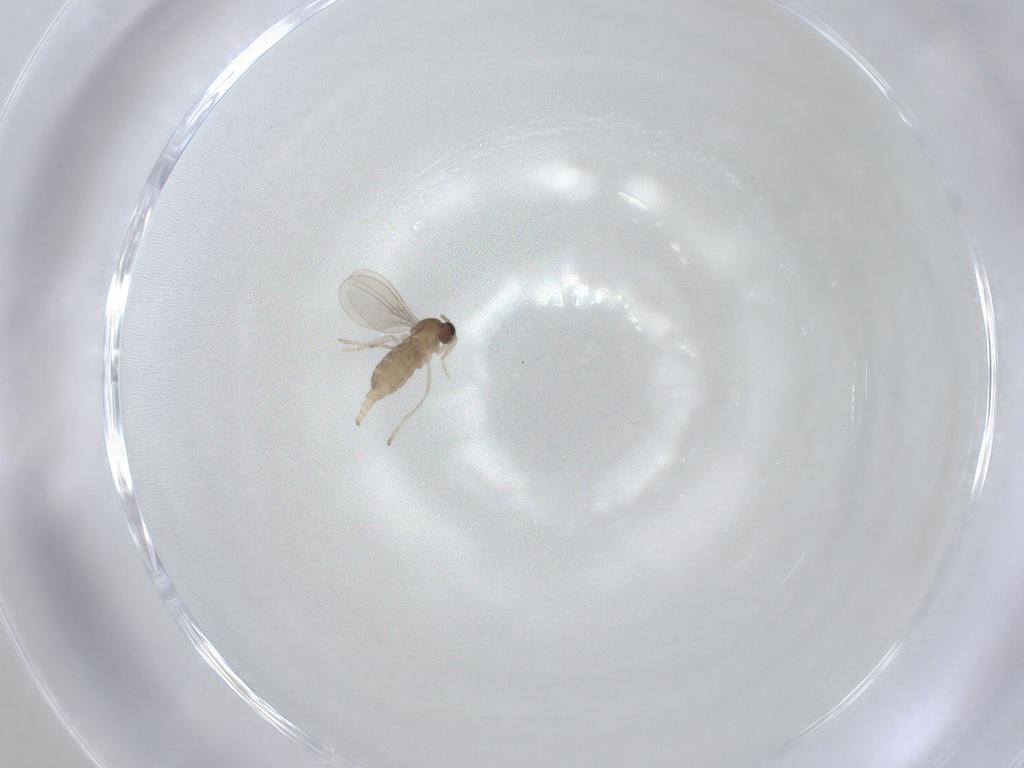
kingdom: Animalia
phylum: Arthropoda
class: Insecta
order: Diptera
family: Cecidomyiidae
